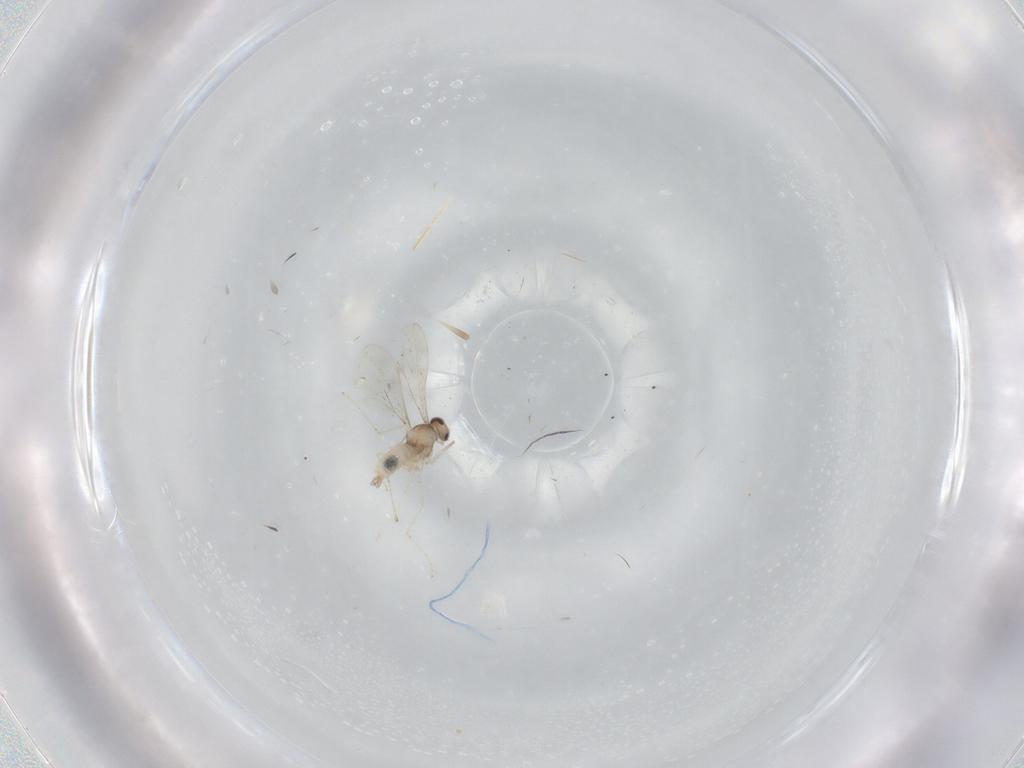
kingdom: Animalia
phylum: Arthropoda
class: Insecta
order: Diptera
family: Cecidomyiidae
